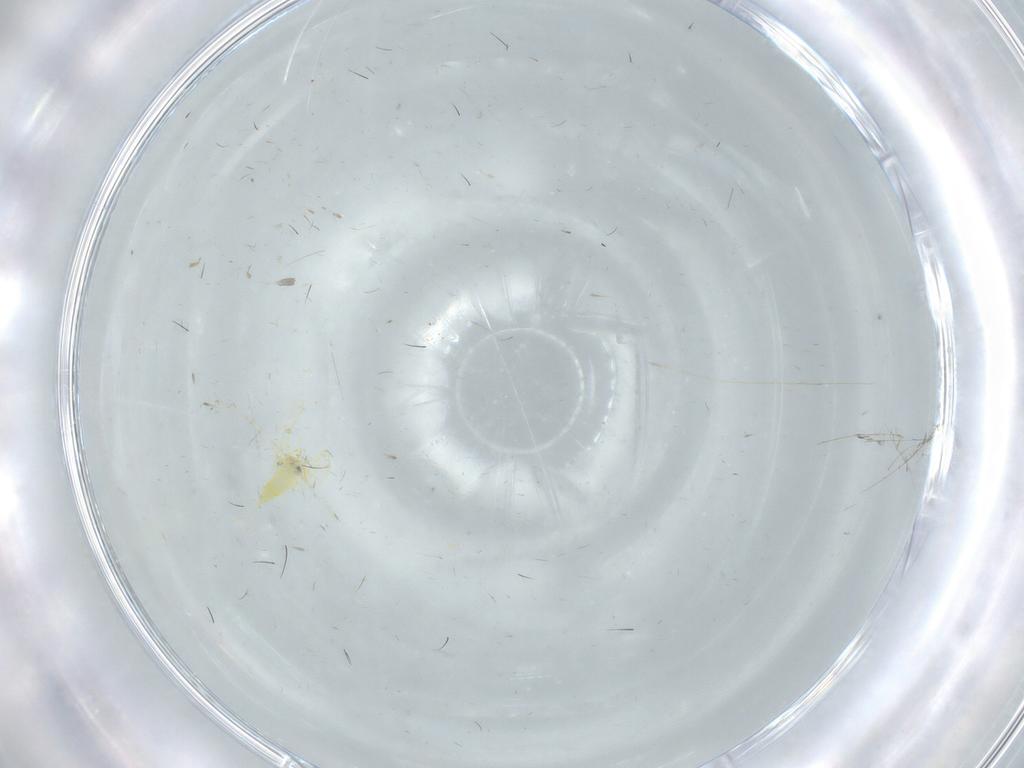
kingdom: Animalia
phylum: Arthropoda
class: Insecta
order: Hemiptera
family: Aleyrodidae
